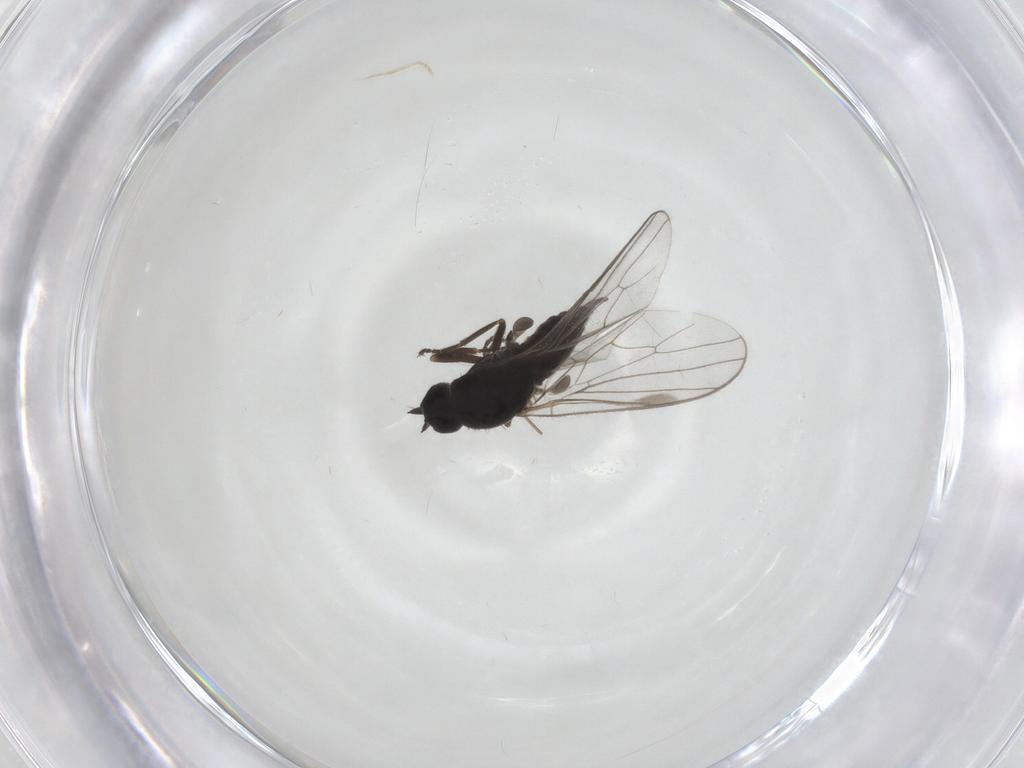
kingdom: Animalia
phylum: Arthropoda
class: Insecta
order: Diptera
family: Hybotidae
